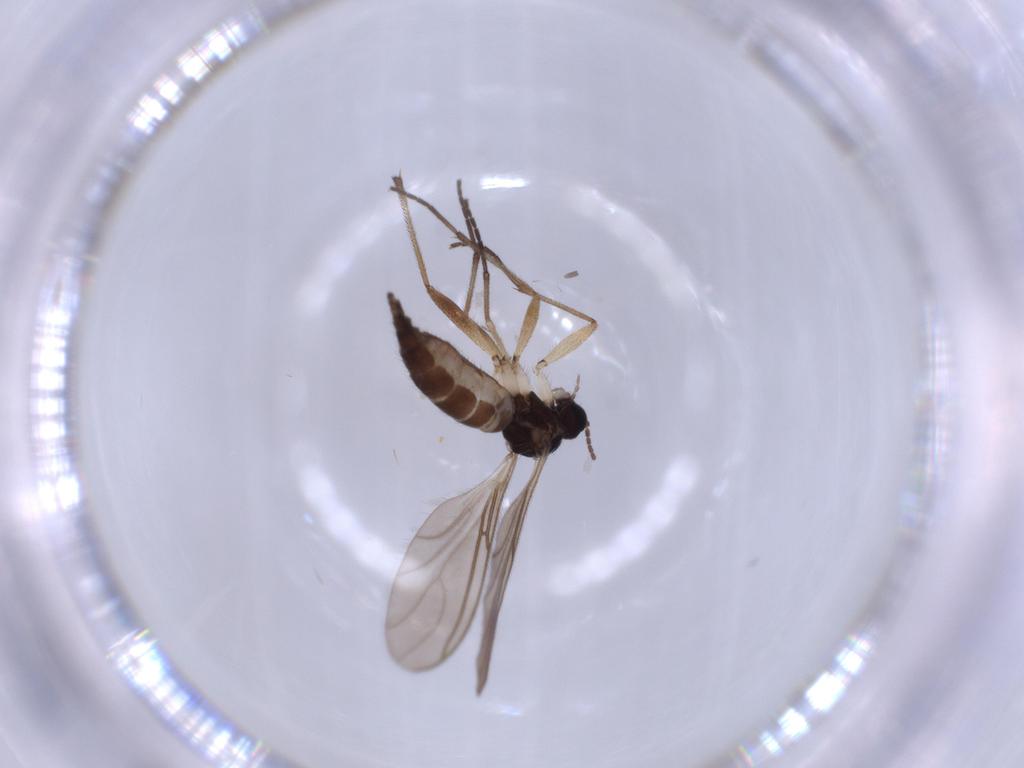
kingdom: Animalia
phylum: Arthropoda
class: Insecta
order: Diptera
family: Sciaridae
